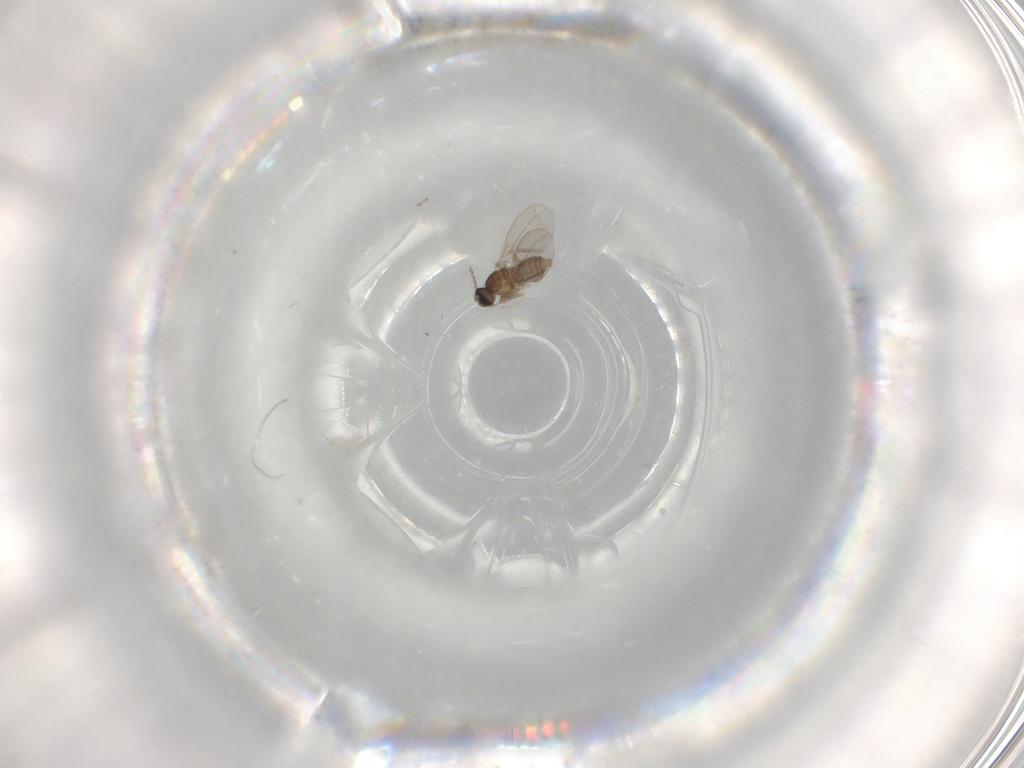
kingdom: Animalia
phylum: Arthropoda
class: Insecta
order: Diptera
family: Cecidomyiidae
